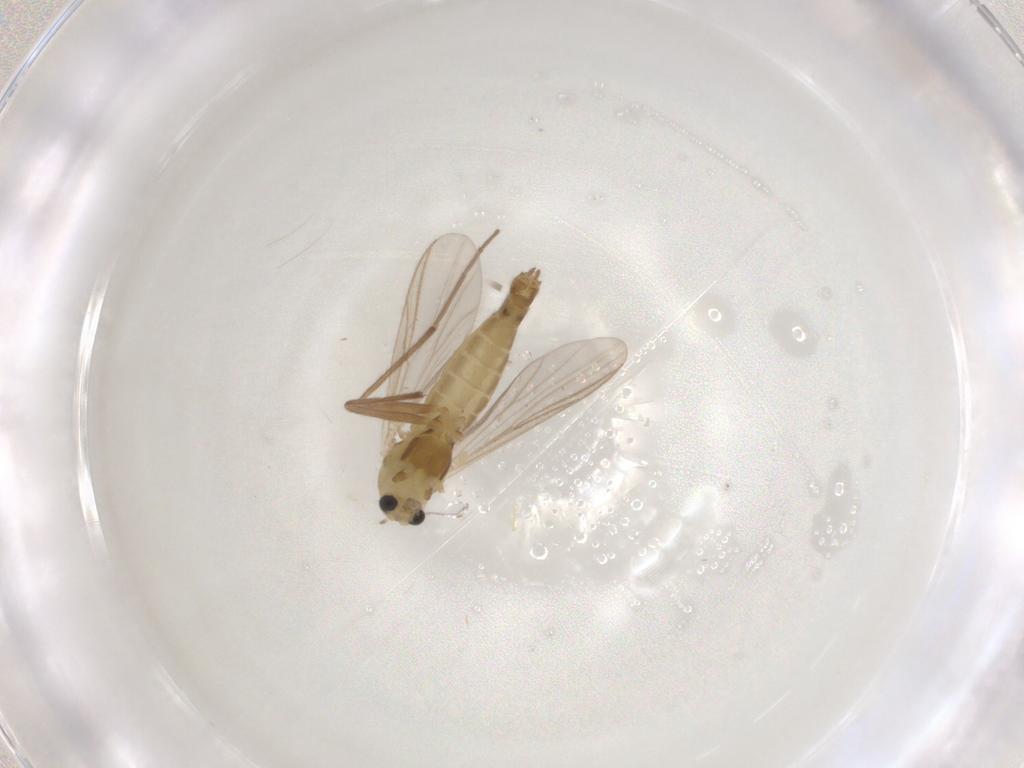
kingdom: Animalia
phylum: Arthropoda
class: Insecta
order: Diptera
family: Chironomidae
